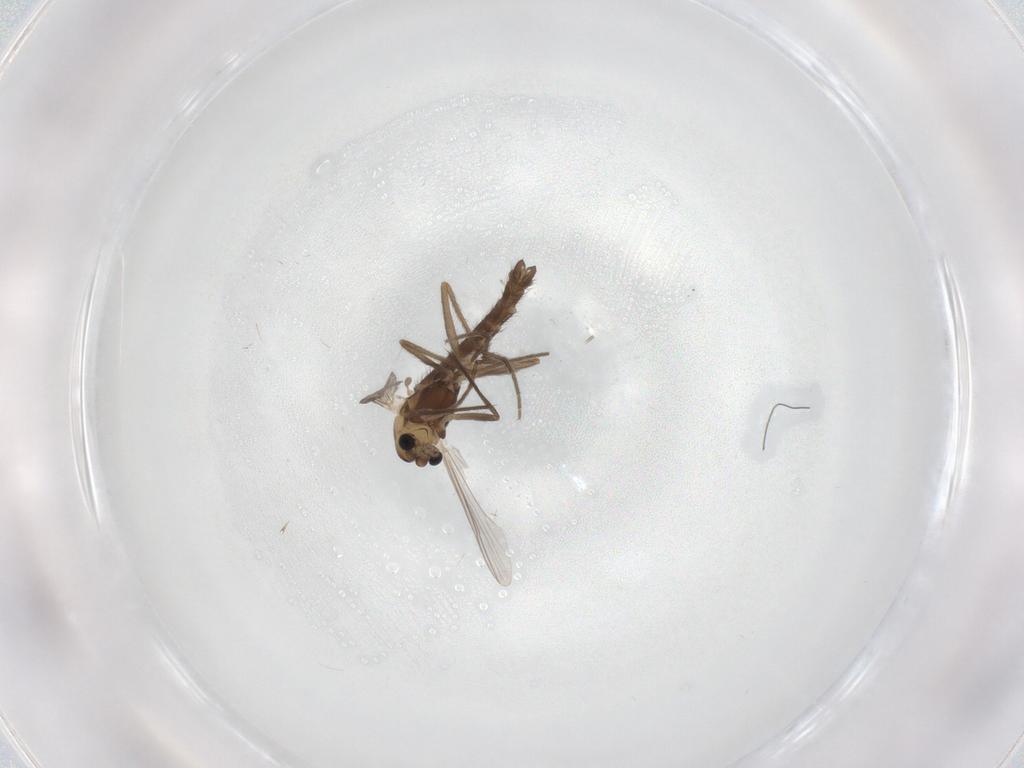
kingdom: Animalia
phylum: Arthropoda
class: Insecta
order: Diptera
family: Chironomidae
